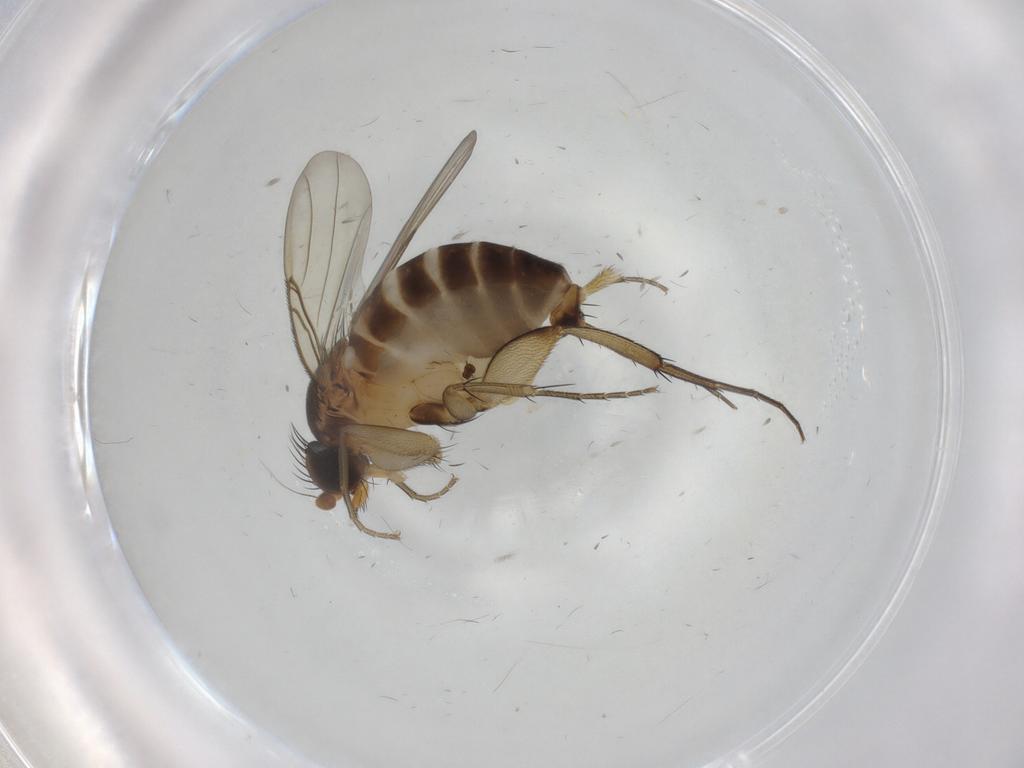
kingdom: Animalia
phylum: Arthropoda
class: Insecta
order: Diptera
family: Phoridae
